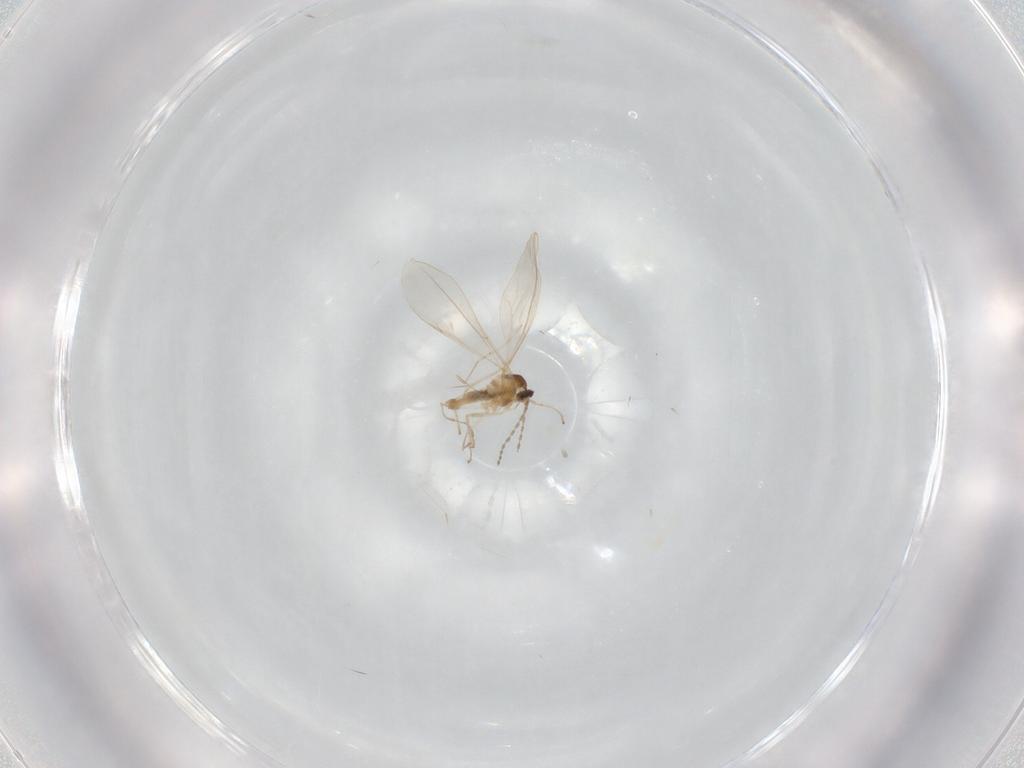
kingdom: Animalia
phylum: Arthropoda
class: Insecta
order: Diptera
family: Cecidomyiidae
